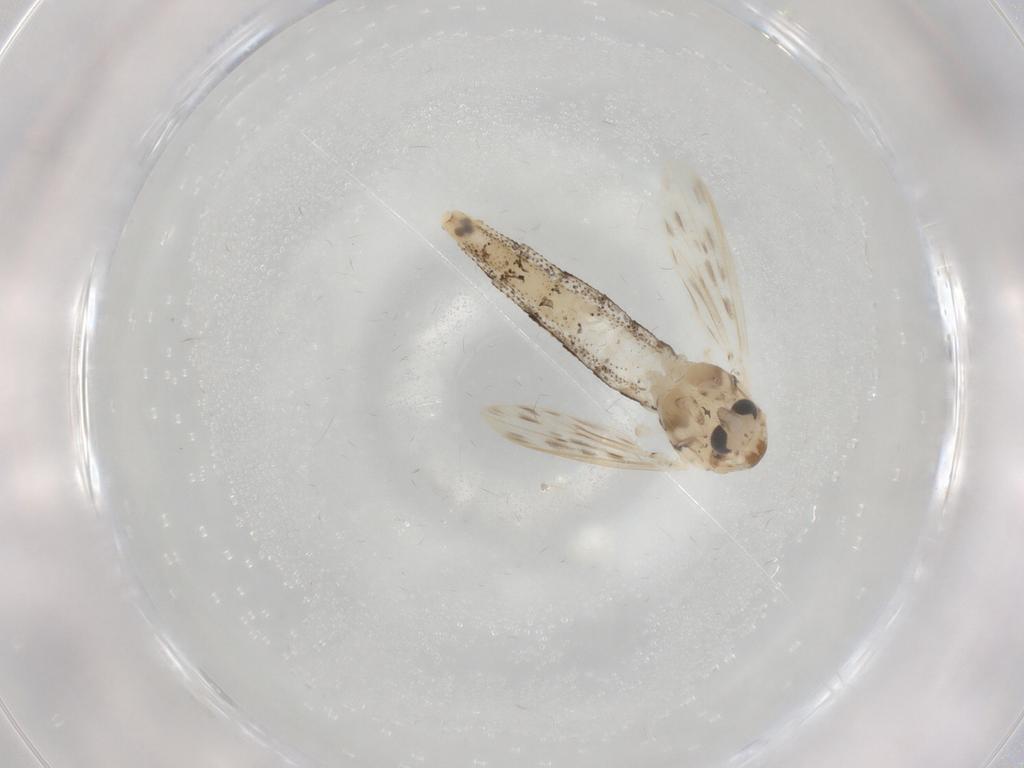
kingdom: Animalia
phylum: Arthropoda
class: Insecta
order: Diptera
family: Chaoboridae
